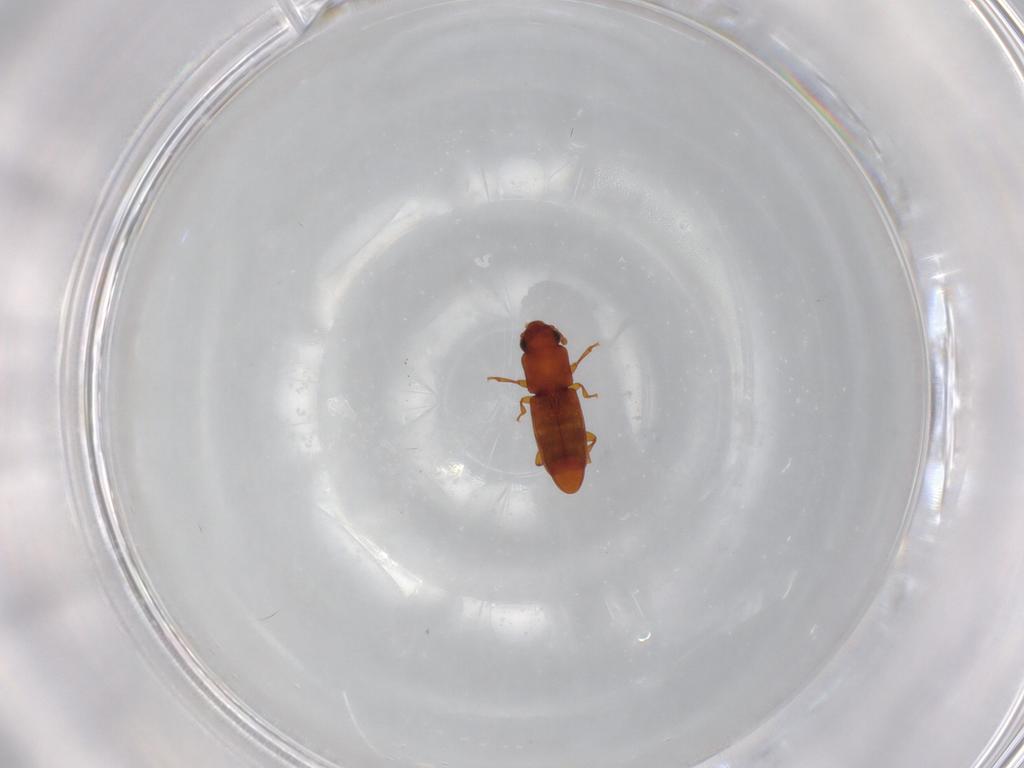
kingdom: Animalia
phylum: Arthropoda
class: Insecta
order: Coleoptera
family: Monotomidae
